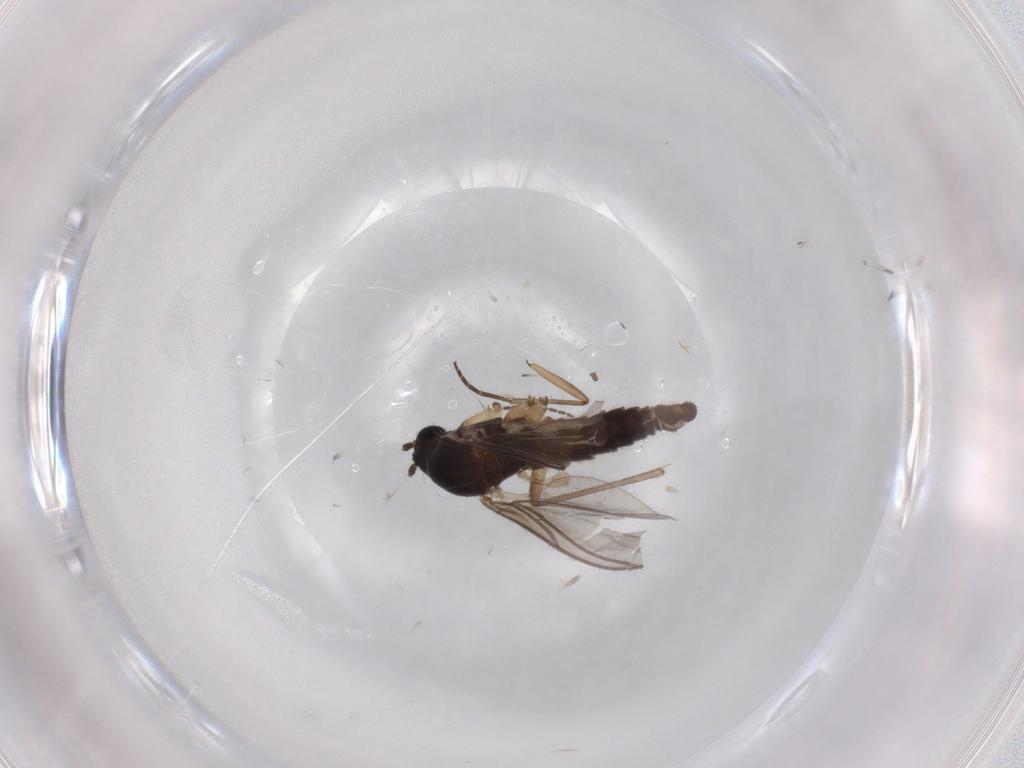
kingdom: Animalia
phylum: Arthropoda
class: Insecta
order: Diptera
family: Sciaridae
